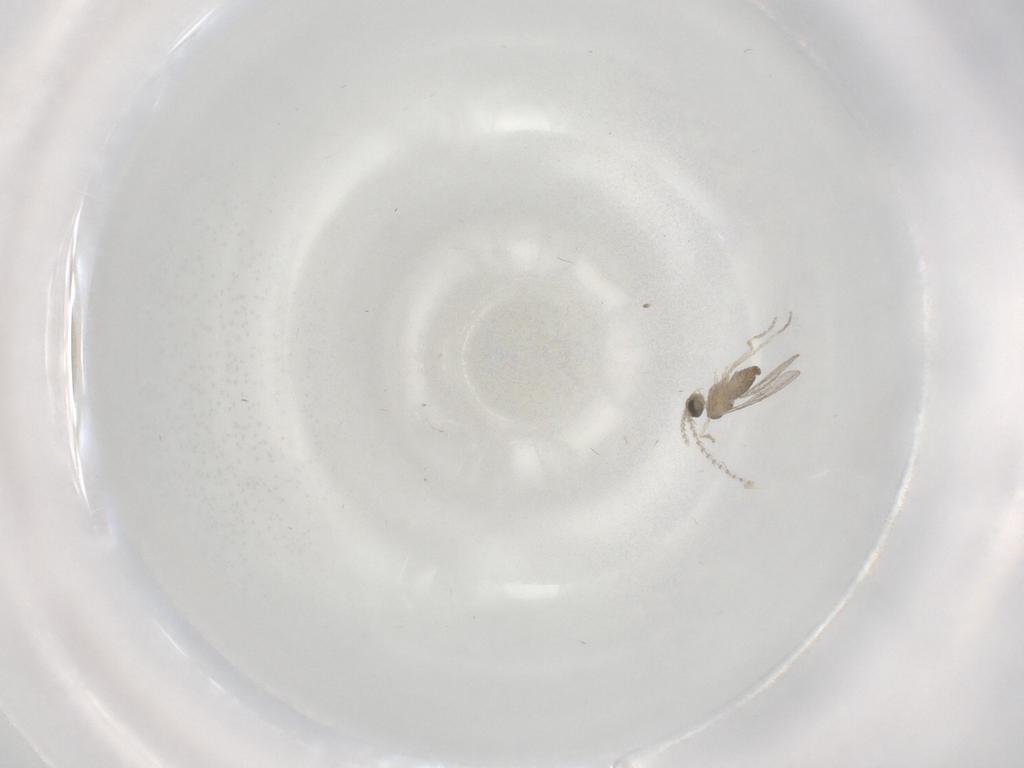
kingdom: Animalia
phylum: Arthropoda
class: Insecta
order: Diptera
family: Cecidomyiidae
